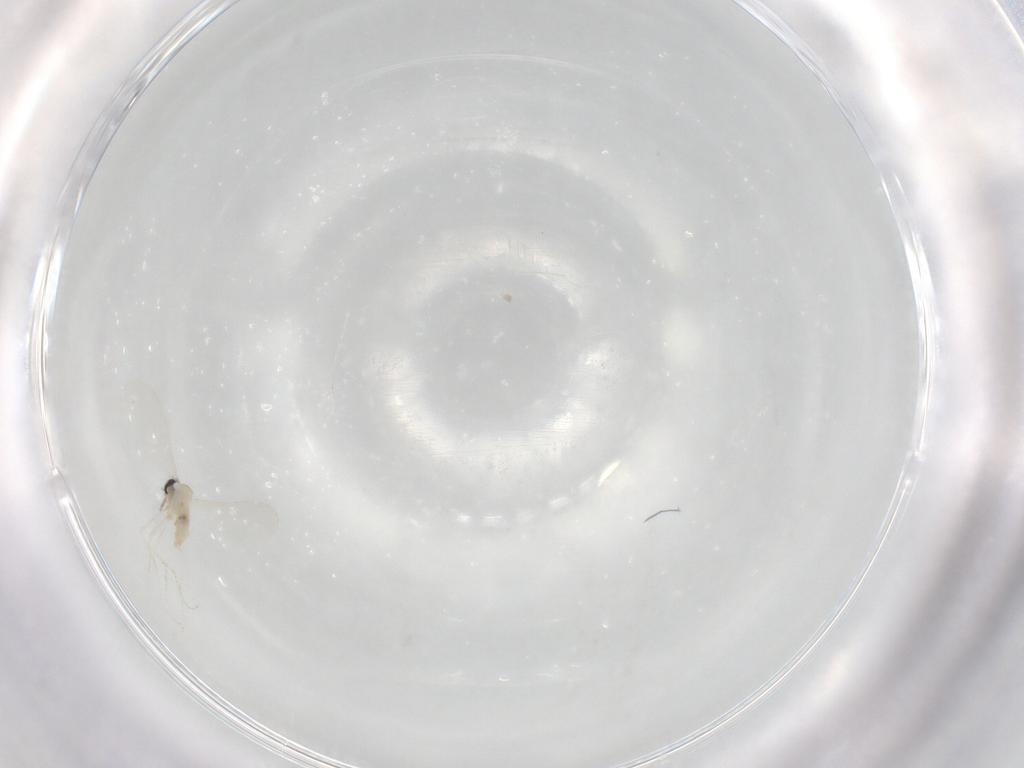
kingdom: Animalia
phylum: Arthropoda
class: Insecta
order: Diptera
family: Cecidomyiidae
